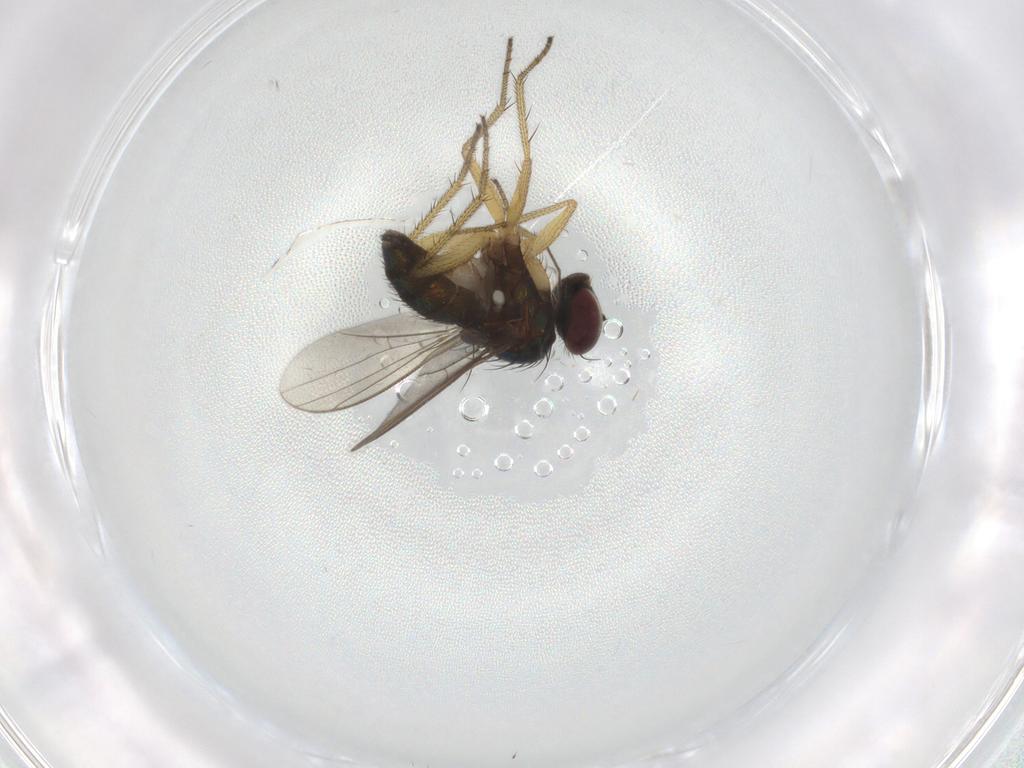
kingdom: Animalia
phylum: Arthropoda
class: Insecta
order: Diptera
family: Dolichopodidae
